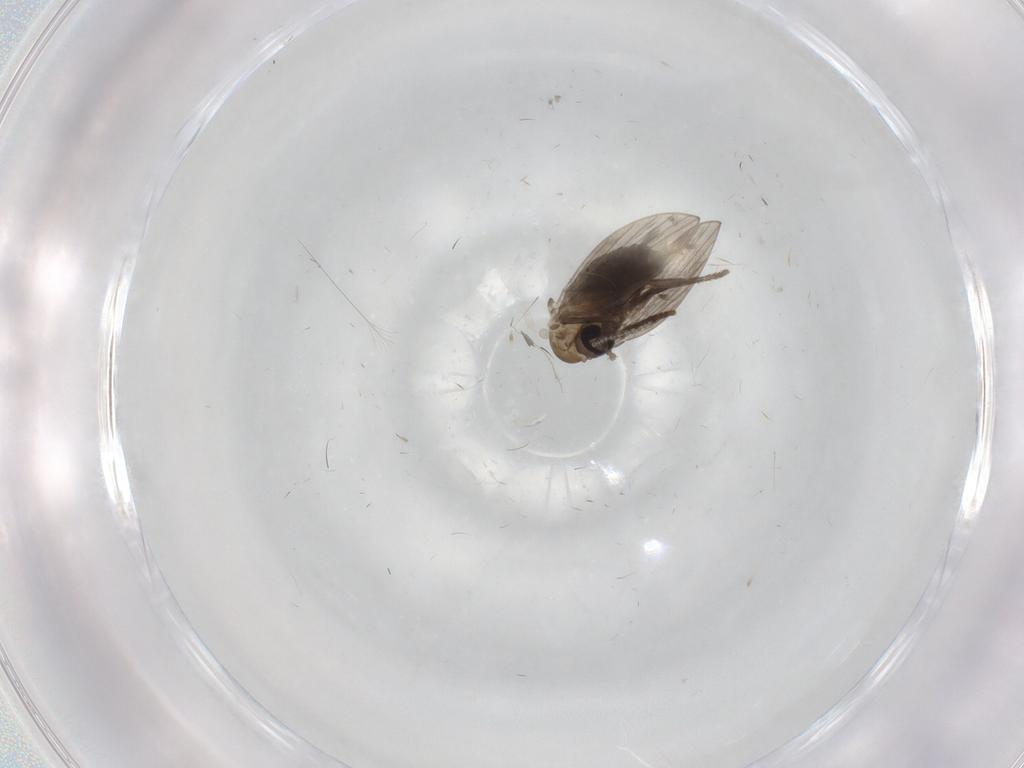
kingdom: Animalia
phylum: Arthropoda
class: Insecta
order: Diptera
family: Psychodidae
